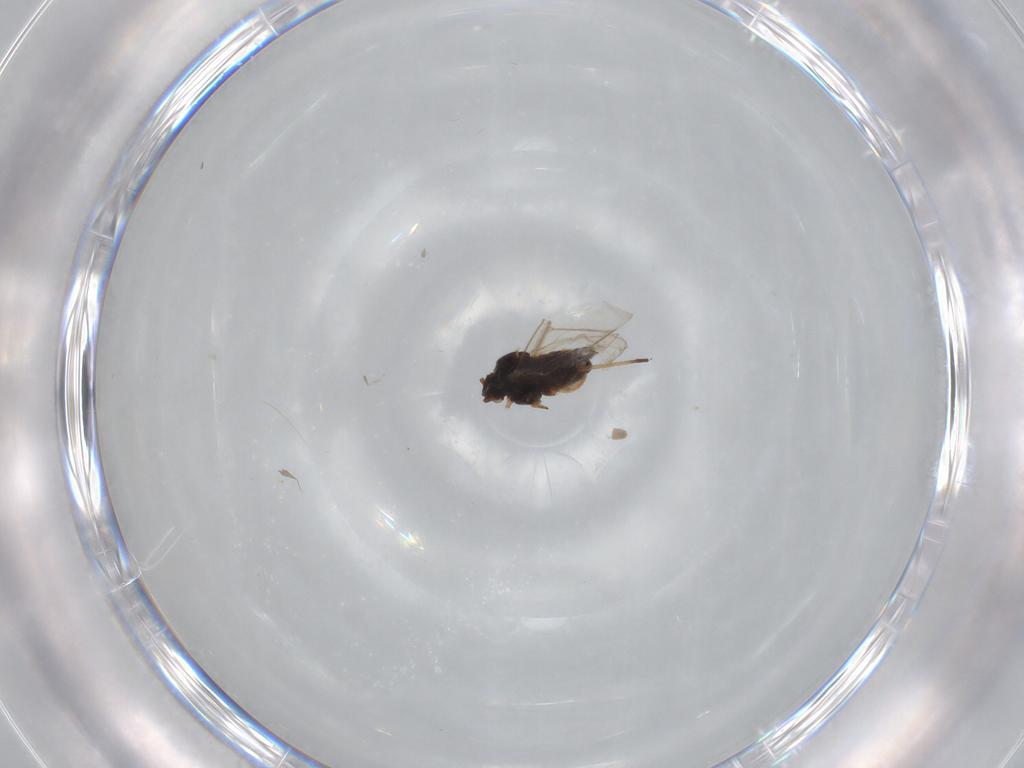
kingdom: Animalia
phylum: Arthropoda
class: Insecta
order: Hemiptera
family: Aphididae
